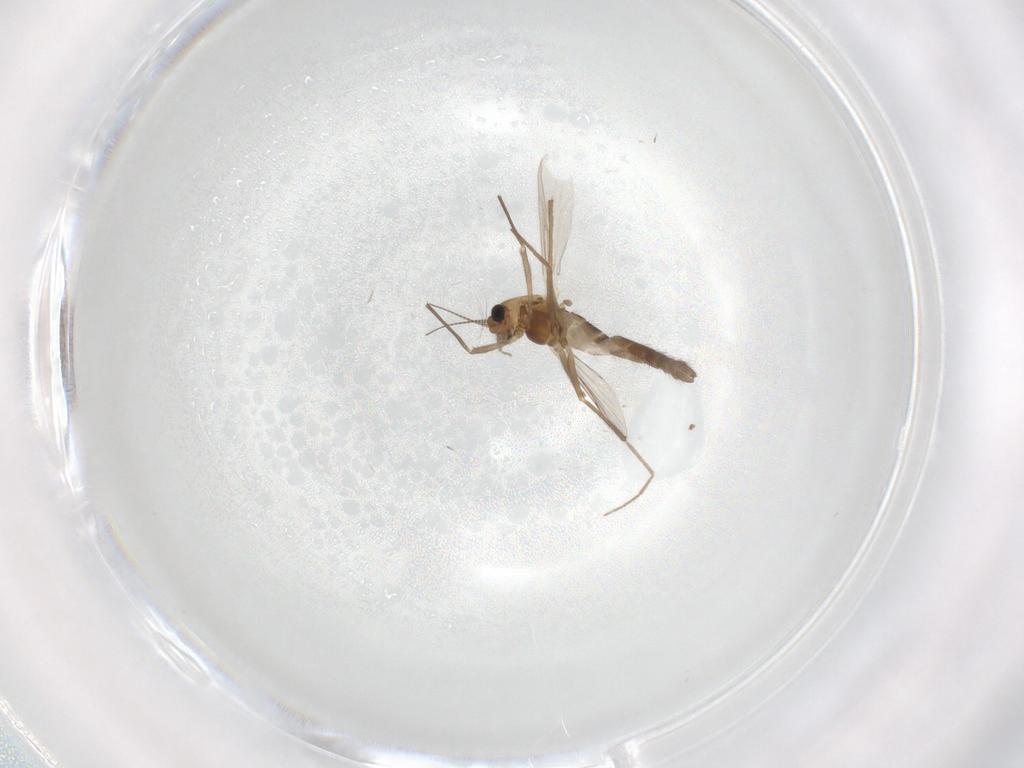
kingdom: Animalia
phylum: Arthropoda
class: Insecta
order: Diptera
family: Chironomidae
